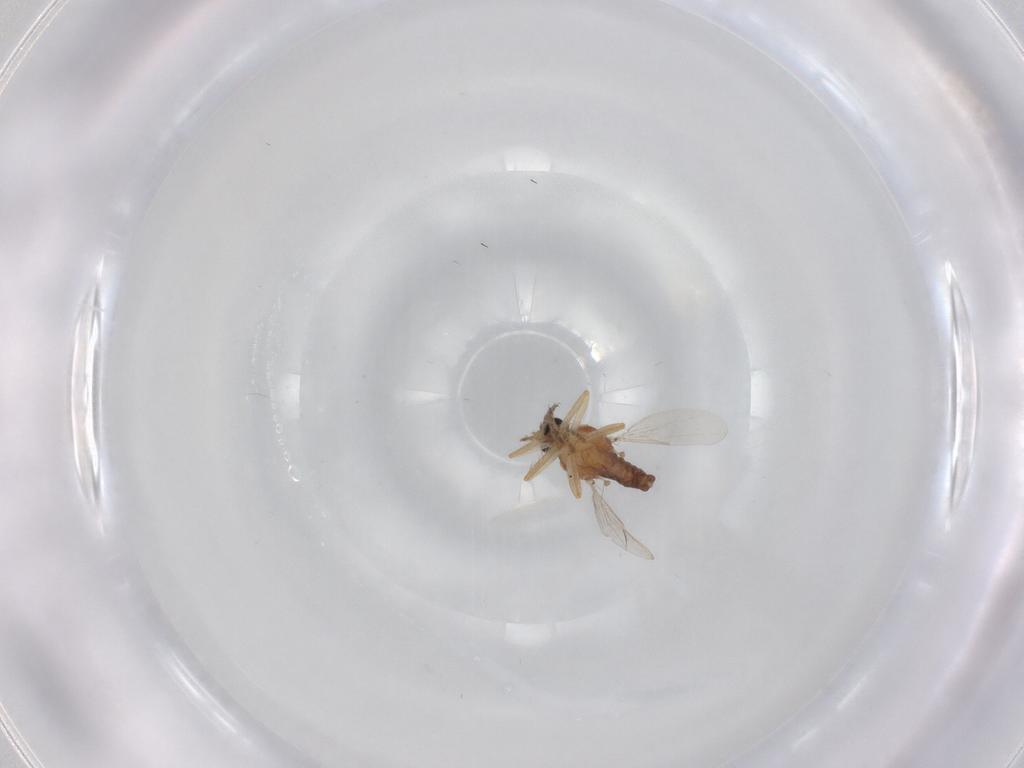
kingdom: Animalia
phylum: Arthropoda
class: Insecta
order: Diptera
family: Ceratopogonidae
